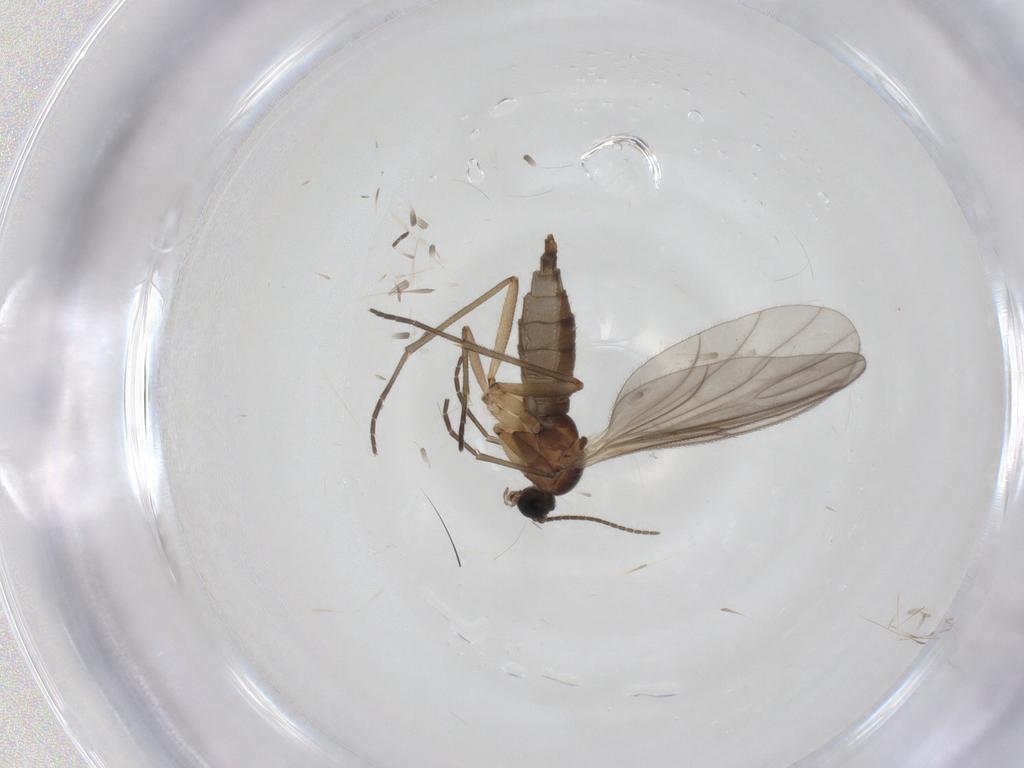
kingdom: Animalia
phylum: Arthropoda
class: Insecta
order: Diptera
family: Sciaridae
